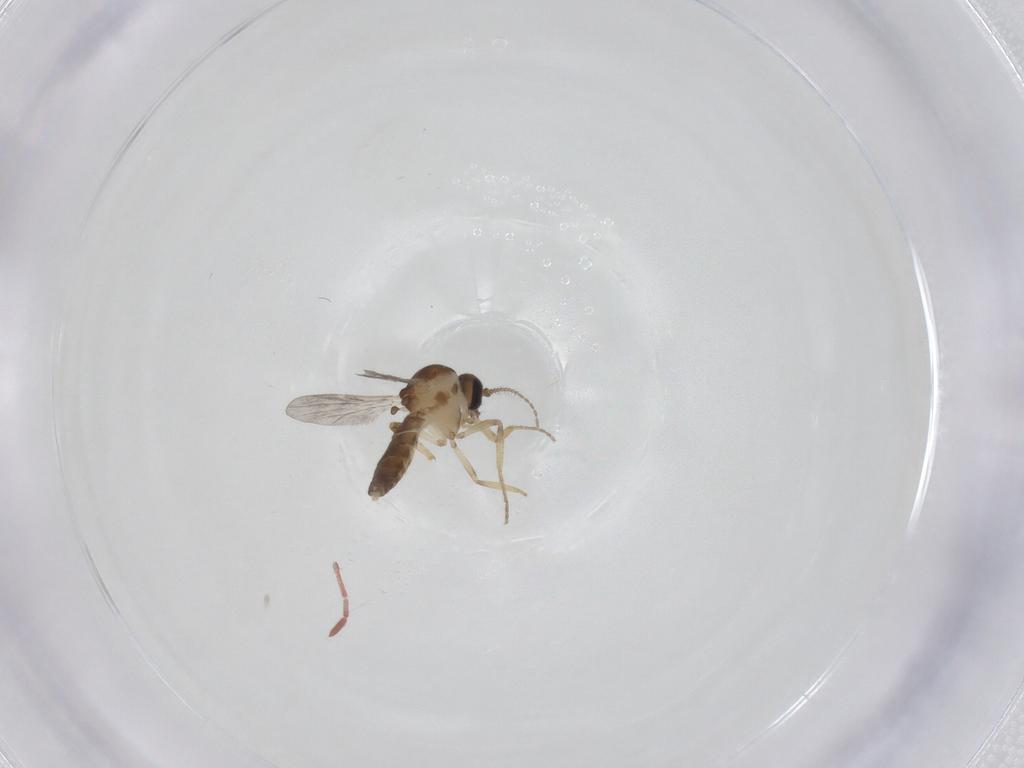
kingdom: Animalia
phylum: Arthropoda
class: Insecta
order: Diptera
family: Ceratopogonidae
